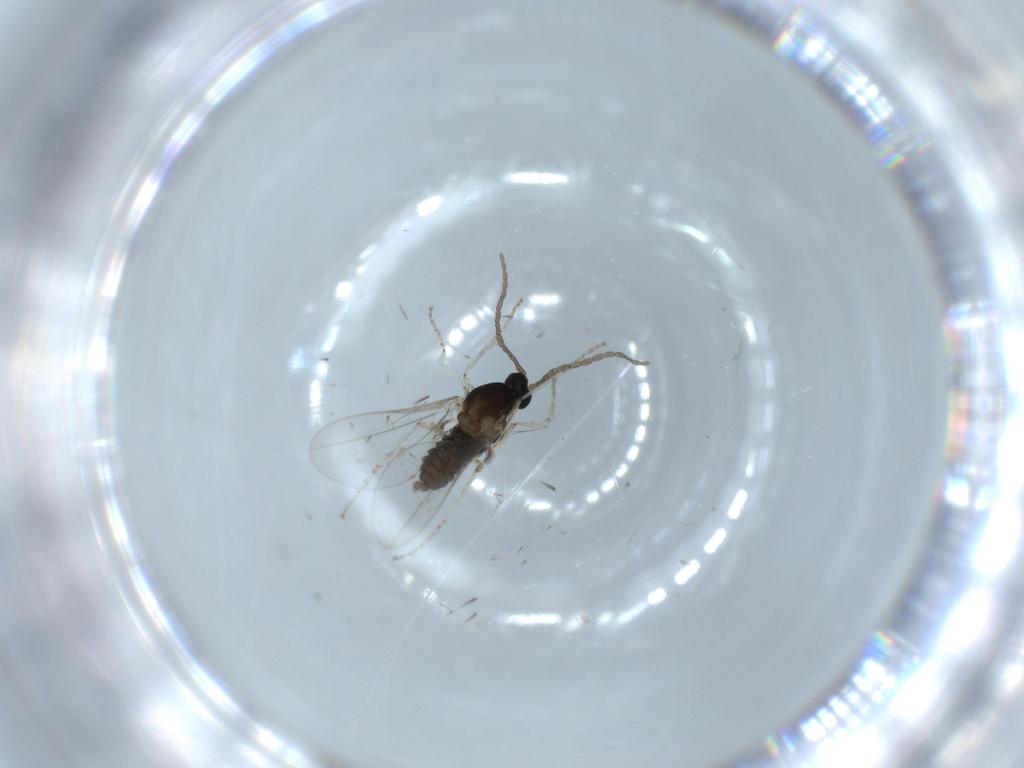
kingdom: Animalia
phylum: Arthropoda
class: Insecta
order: Diptera
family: Cecidomyiidae
